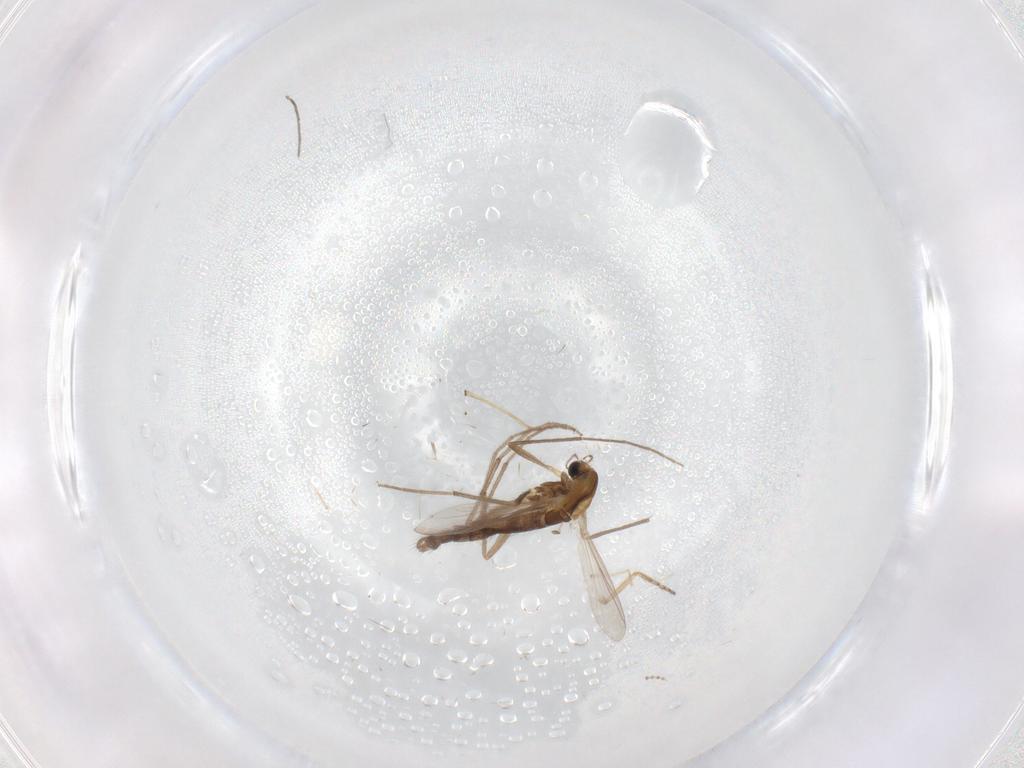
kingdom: Animalia
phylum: Arthropoda
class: Insecta
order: Diptera
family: Chironomidae
